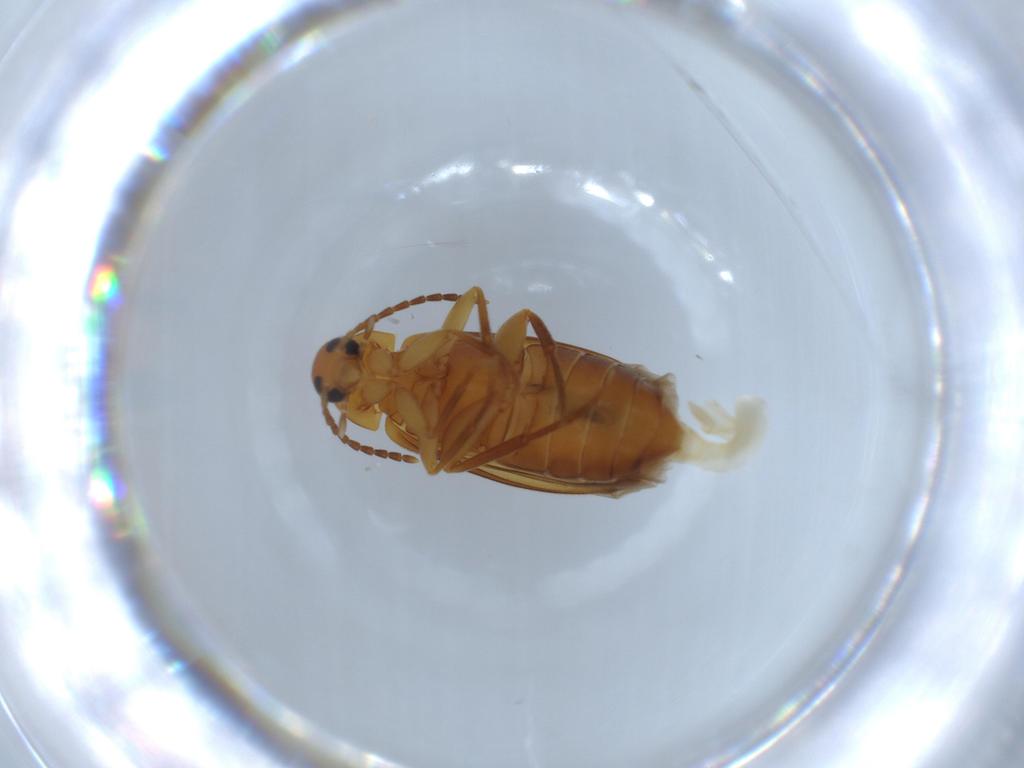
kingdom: Animalia
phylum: Arthropoda
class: Insecta
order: Coleoptera
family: Scraptiidae
